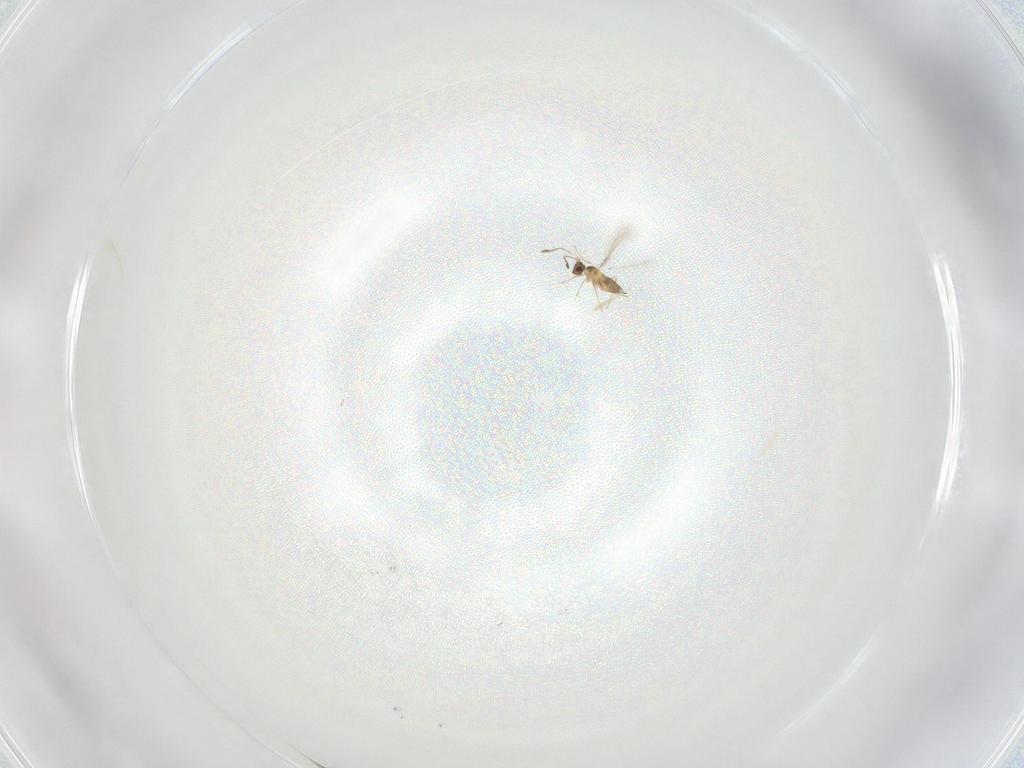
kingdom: Animalia
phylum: Arthropoda
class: Insecta
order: Hymenoptera
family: Mymaridae
